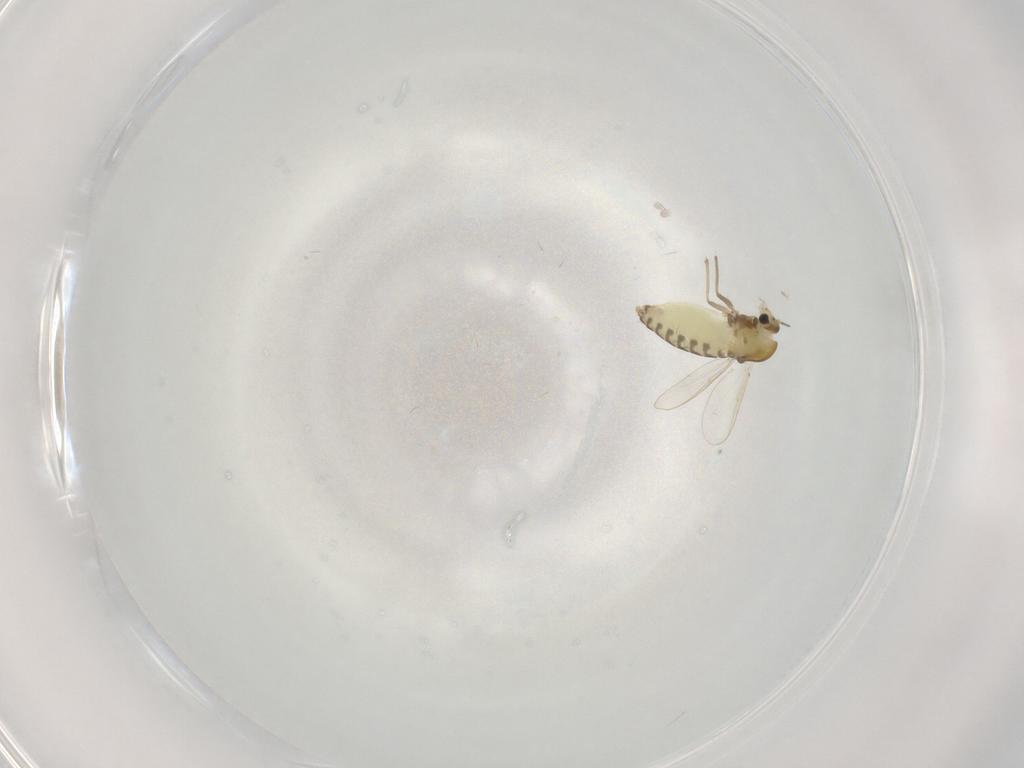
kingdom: Animalia
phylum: Arthropoda
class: Insecta
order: Diptera
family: Chironomidae
